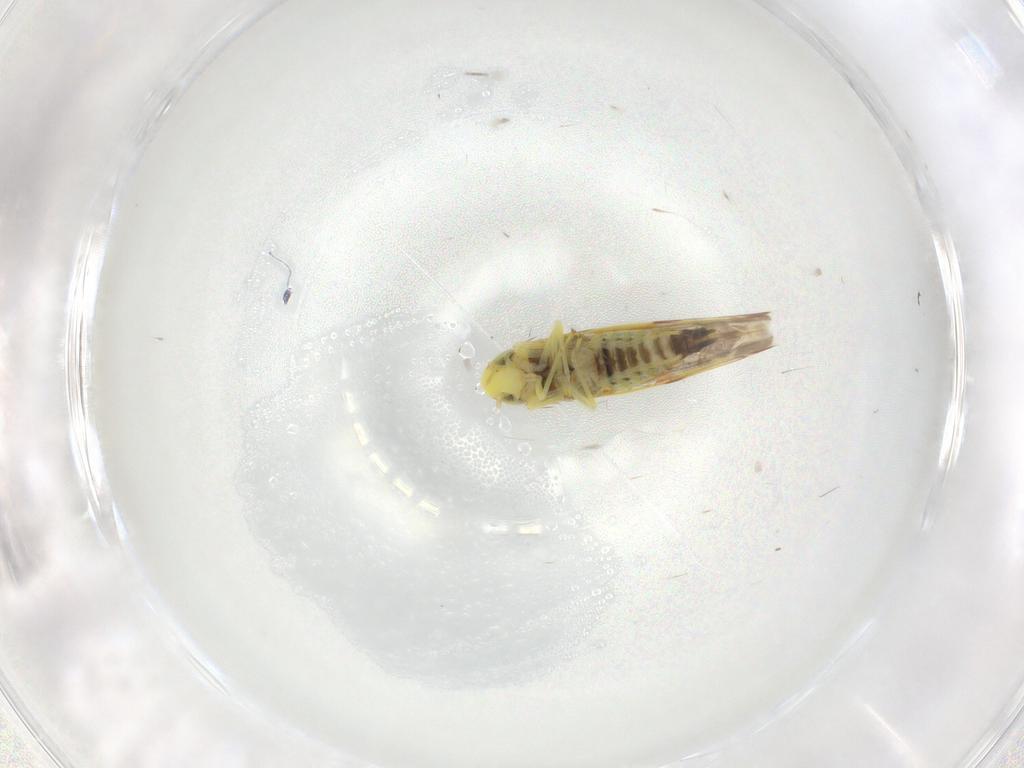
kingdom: Animalia
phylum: Arthropoda
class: Insecta
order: Hemiptera
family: Cicadellidae
